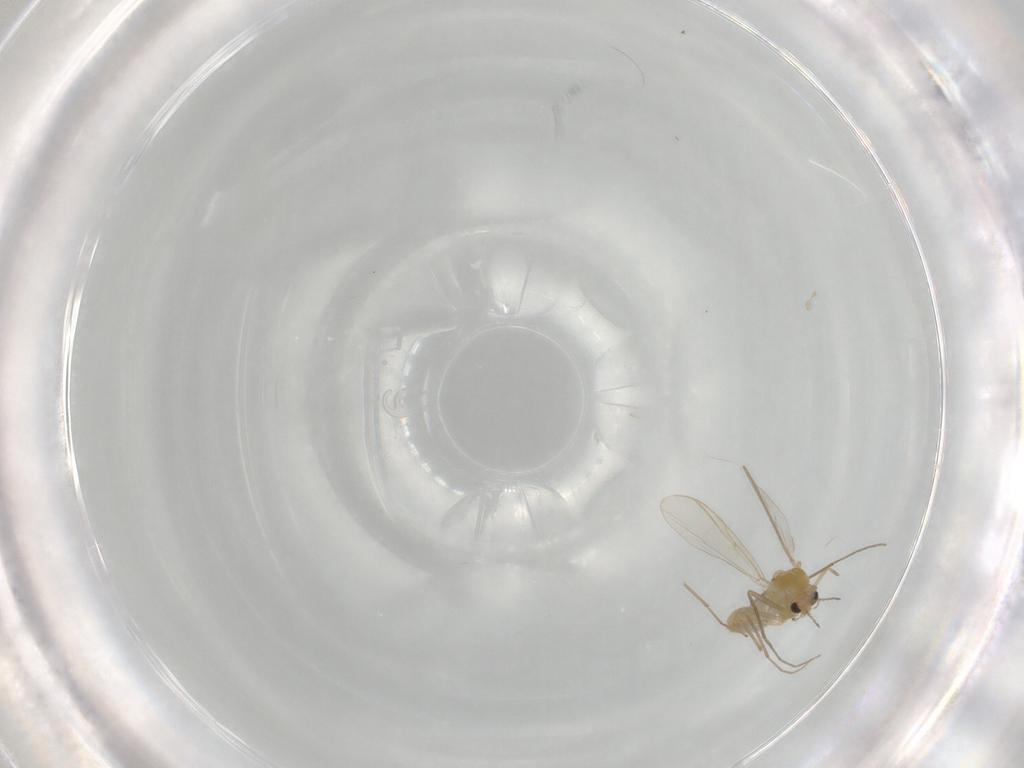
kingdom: Animalia
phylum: Arthropoda
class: Insecta
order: Diptera
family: Chironomidae
